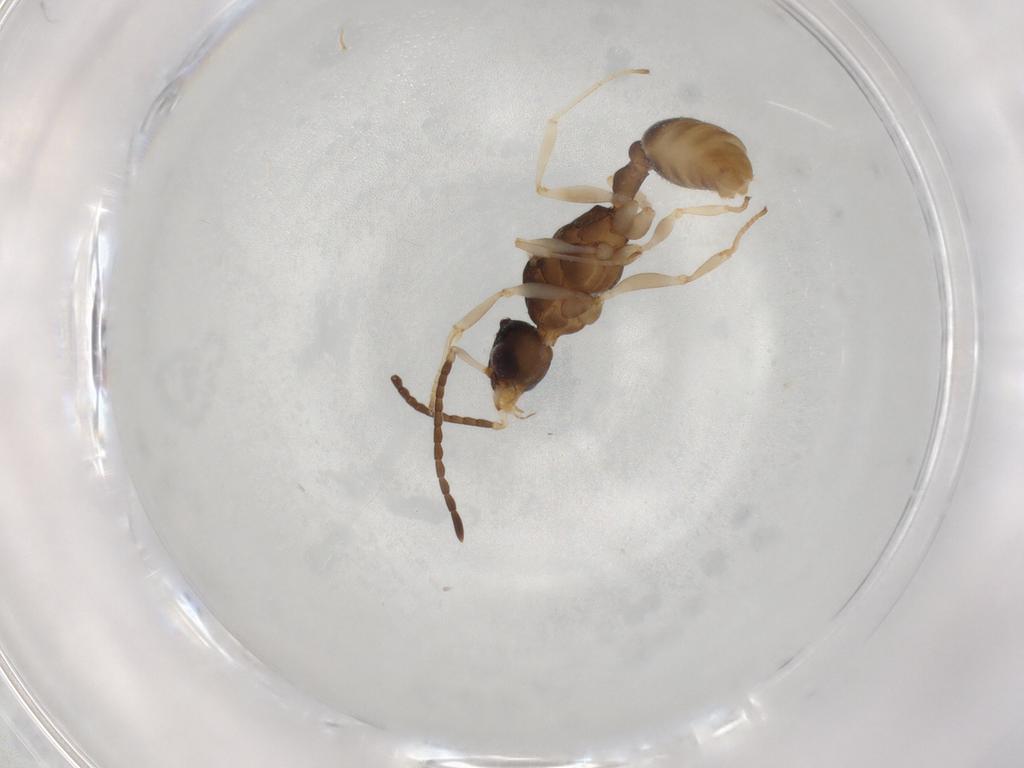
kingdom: Animalia
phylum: Arthropoda
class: Insecta
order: Hymenoptera
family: Formicidae
